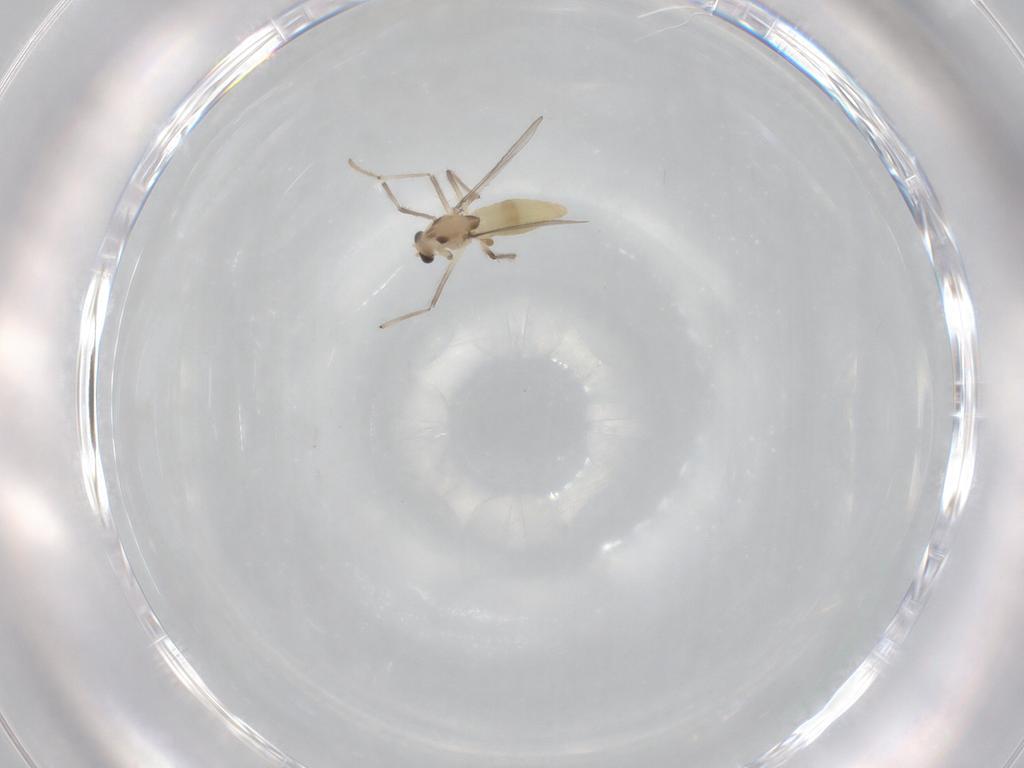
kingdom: Animalia
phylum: Arthropoda
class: Insecta
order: Diptera
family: Chironomidae
